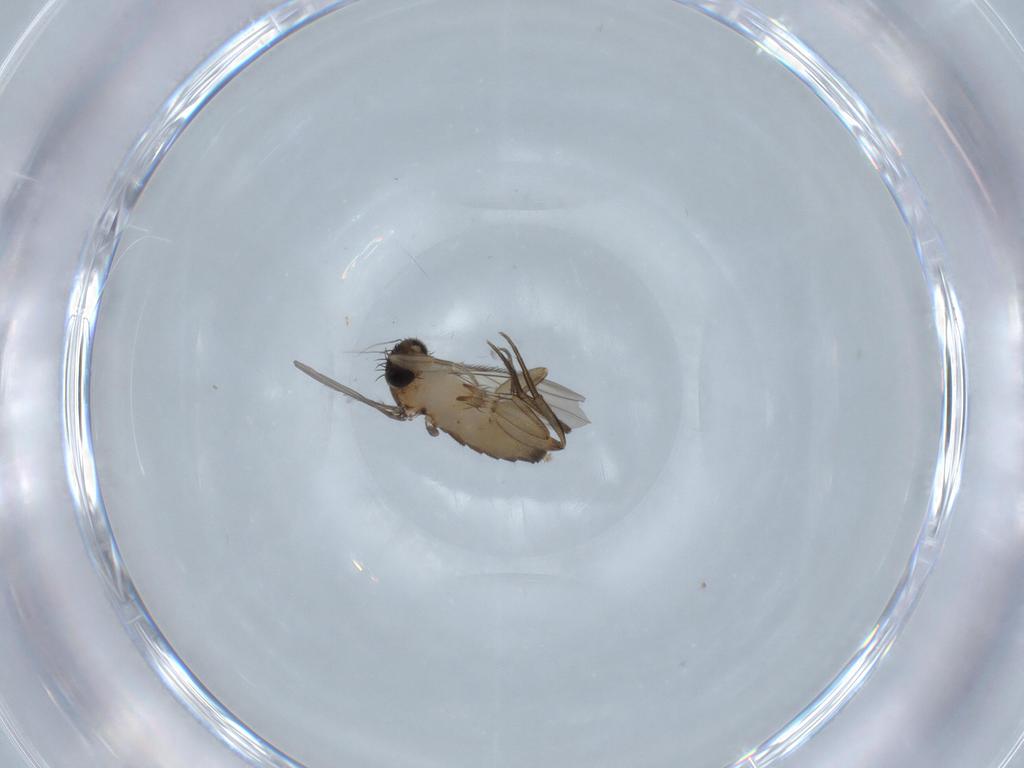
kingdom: Animalia
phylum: Arthropoda
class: Insecta
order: Diptera
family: Phoridae
